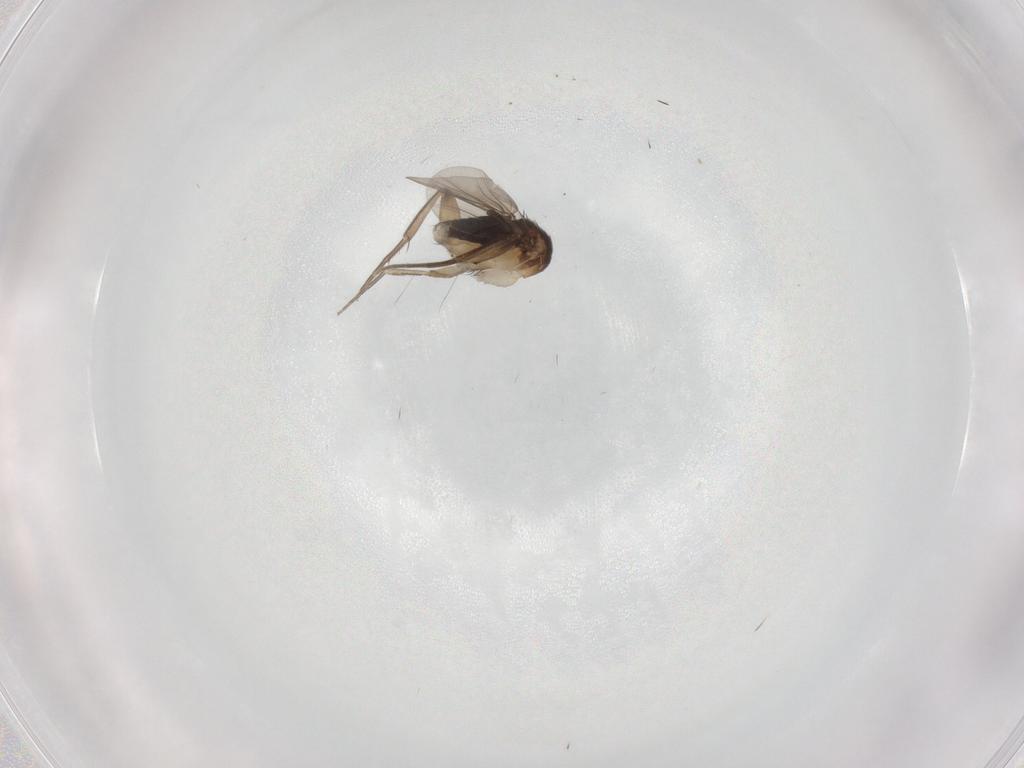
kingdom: Animalia
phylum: Arthropoda
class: Insecta
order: Diptera
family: Psychodidae
